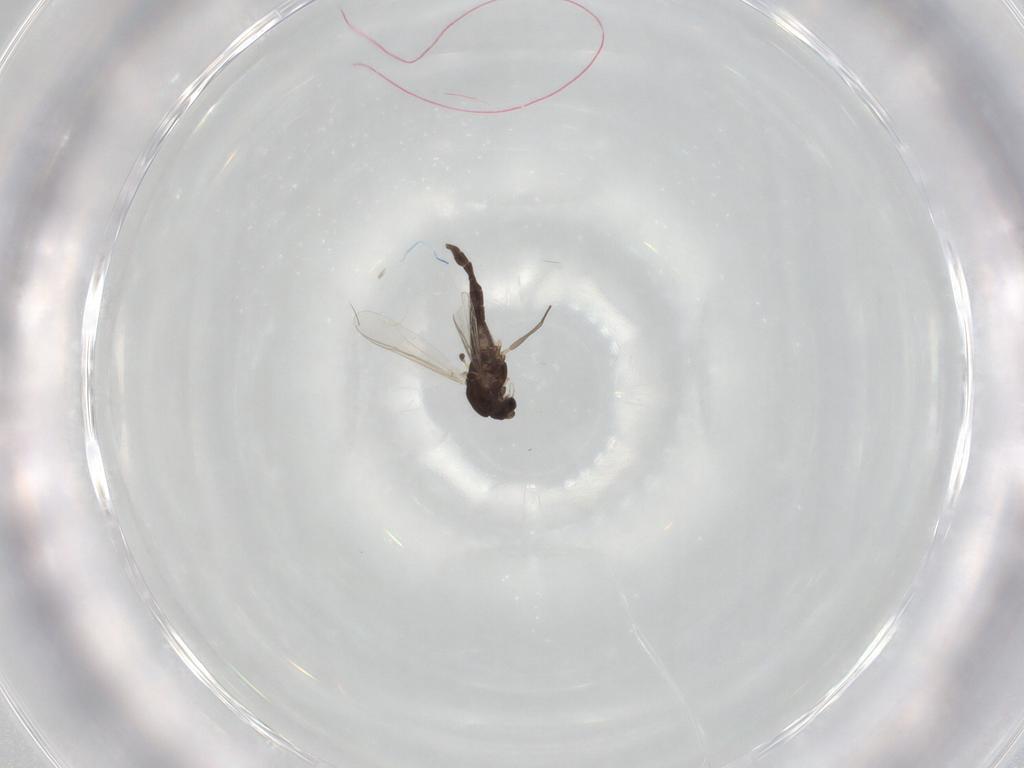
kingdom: Animalia
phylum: Arthropoda
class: Insecta
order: Diptera
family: Chironomidae
